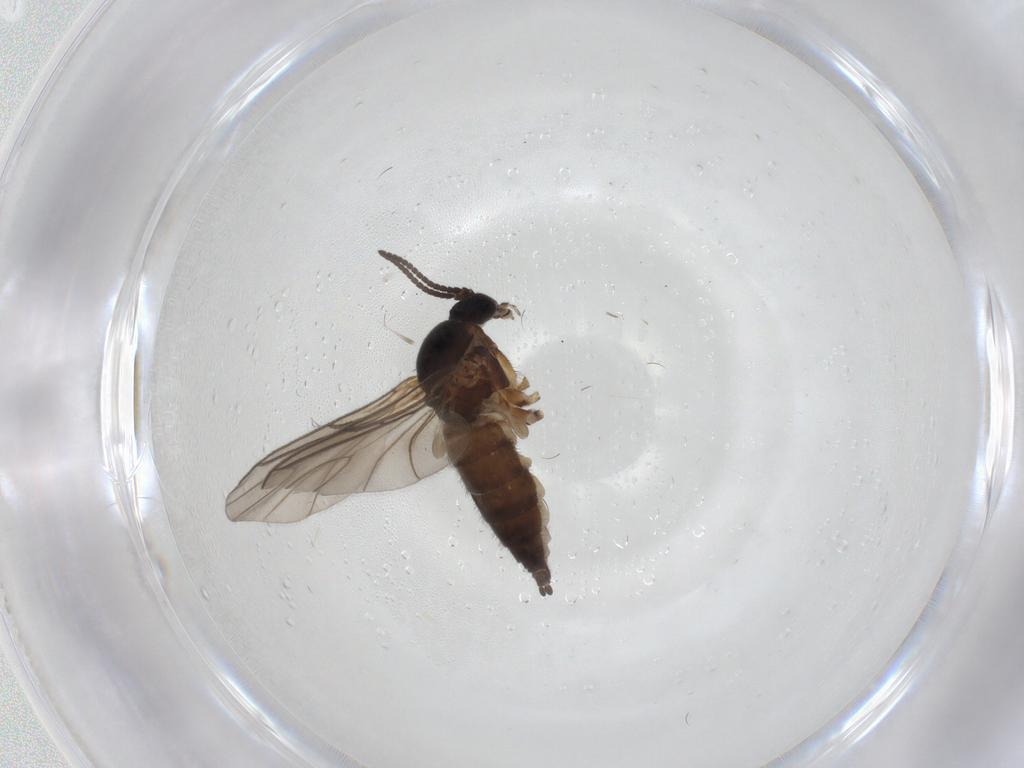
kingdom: Animalia
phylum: Arthropoda
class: Insecta
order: Diptera
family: Sciaridae
